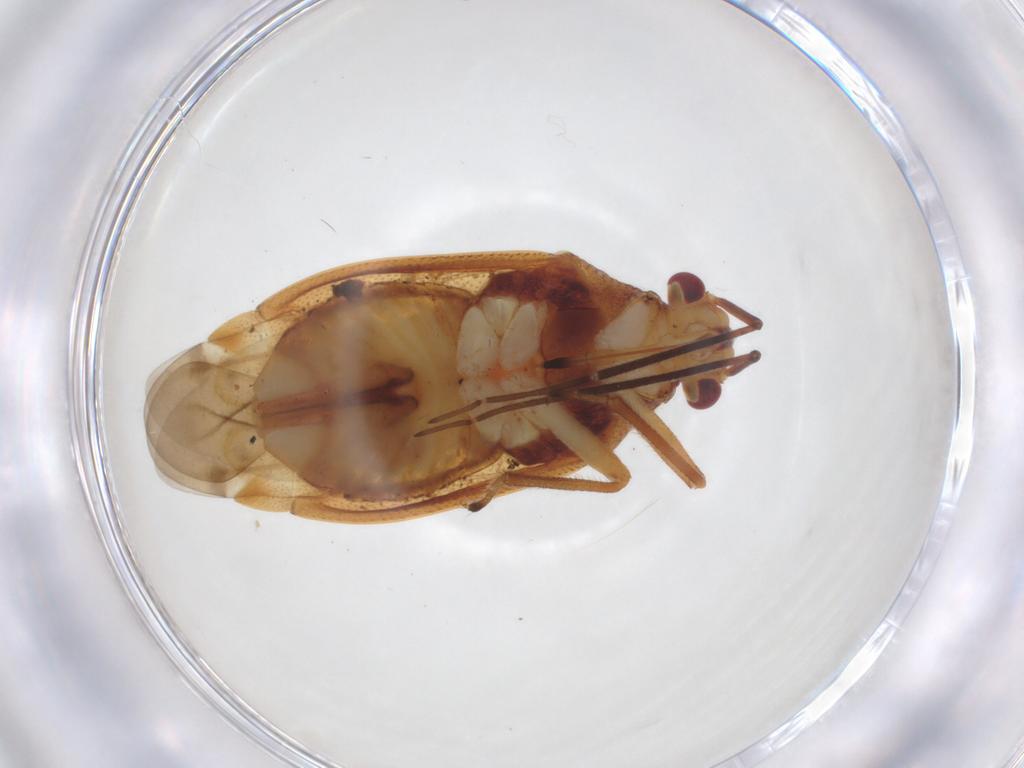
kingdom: Animalia
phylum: Arthropoda
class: Insecta
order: Hemiptera
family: Miridae
